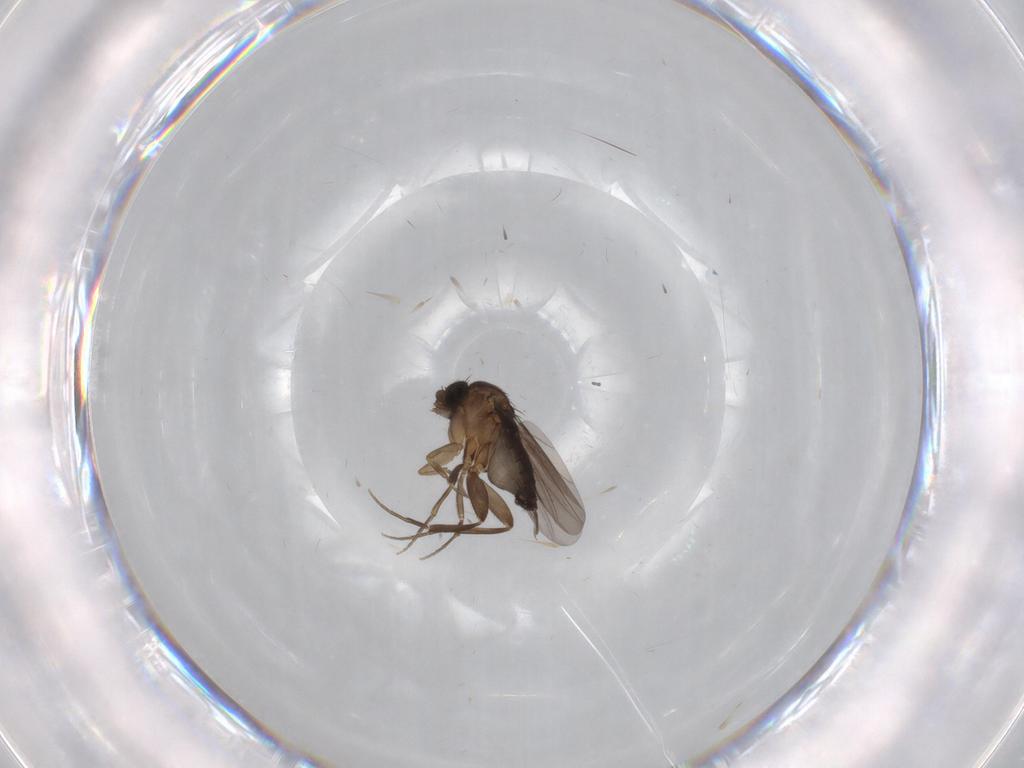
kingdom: Animalia
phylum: Arthropoda
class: Insecta
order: Diptera
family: Phoridae
